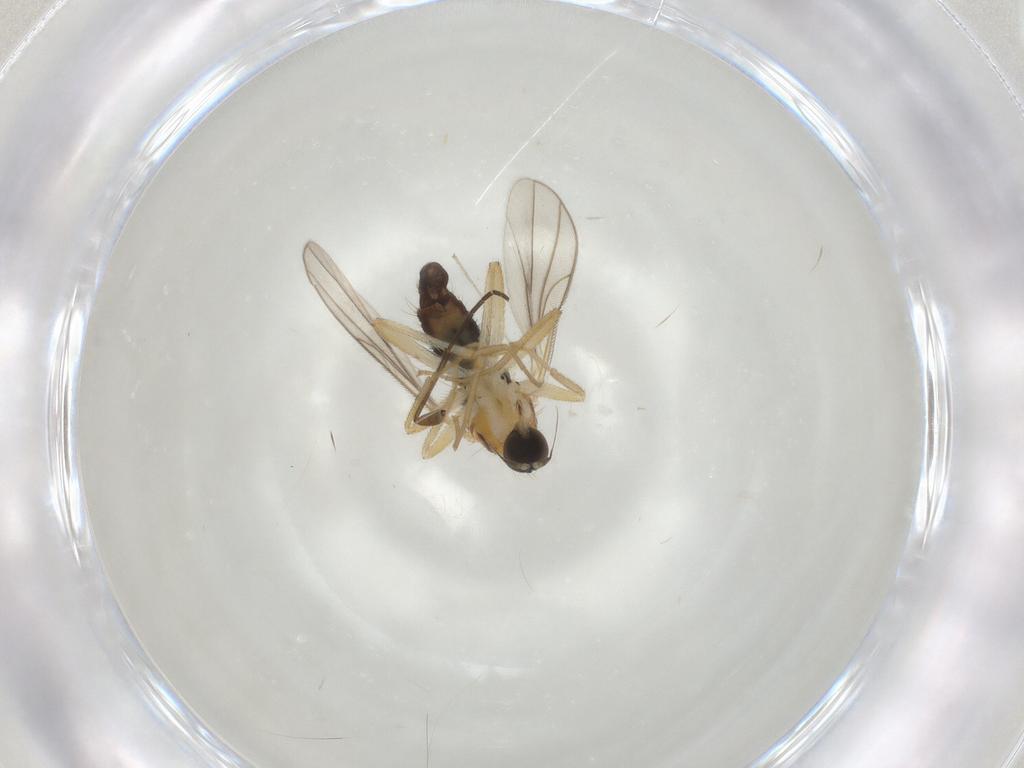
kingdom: Animalia
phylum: Arthropoda
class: Insecta
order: Diptera
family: Hybotidae
